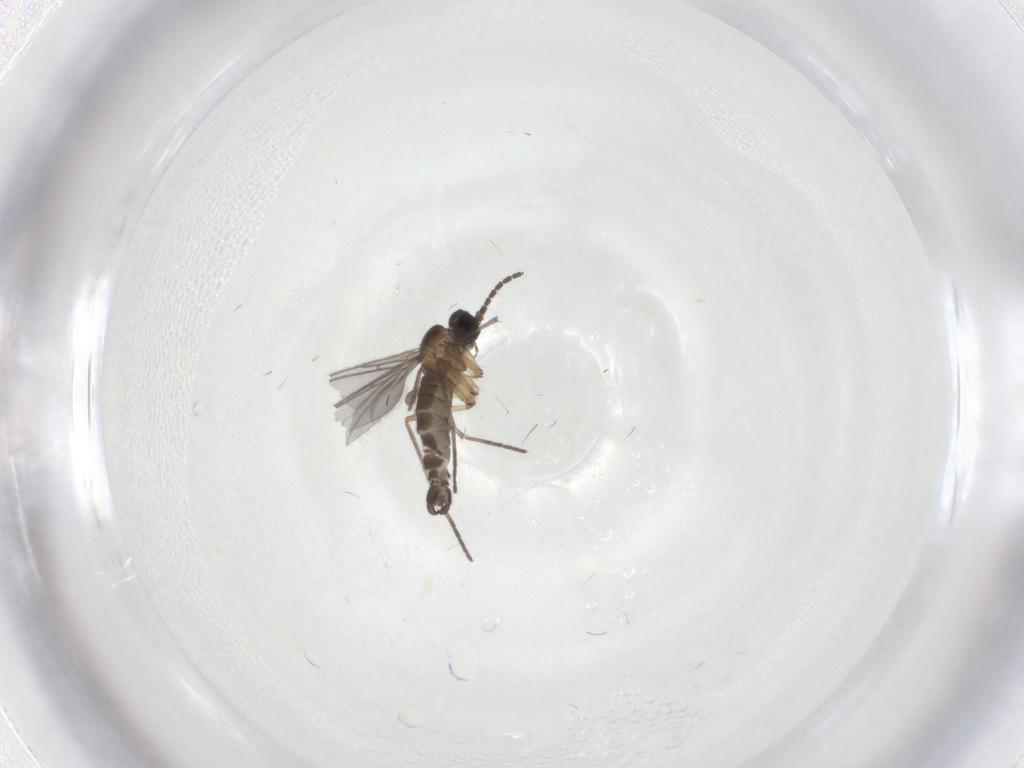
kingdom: Animalia
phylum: Arthropoda
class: Insecta
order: Diptera
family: Sciaridae
